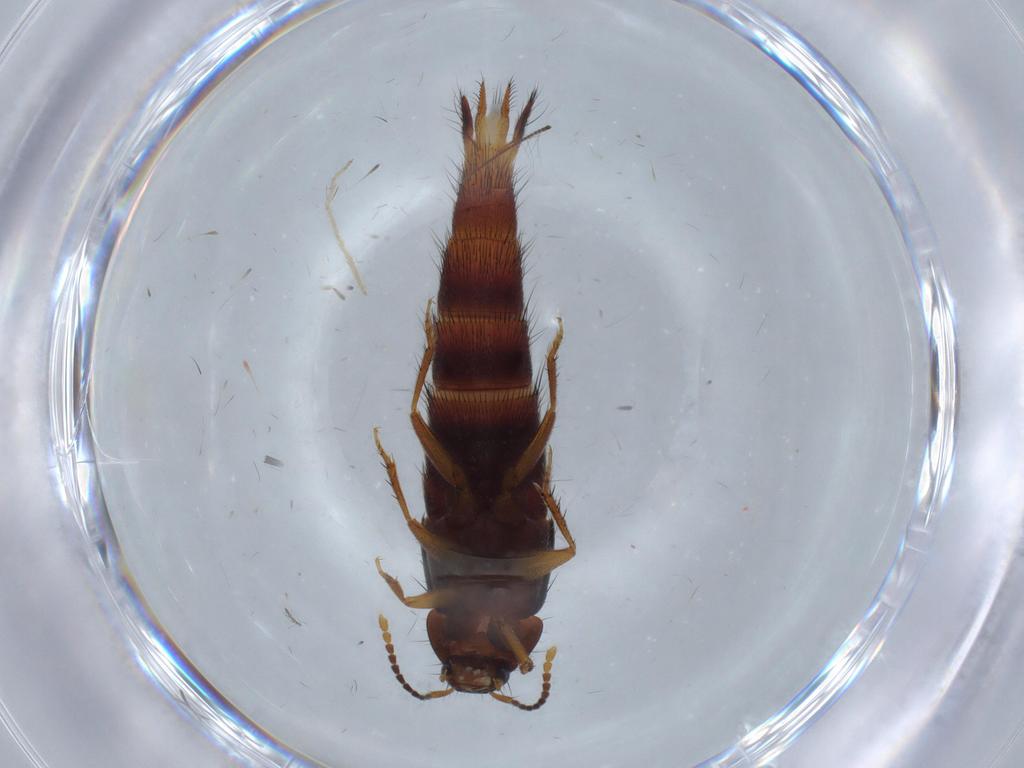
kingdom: Animalia
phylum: Arthropoda
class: Insecta
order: Coleoptera
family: Staphylinidae
